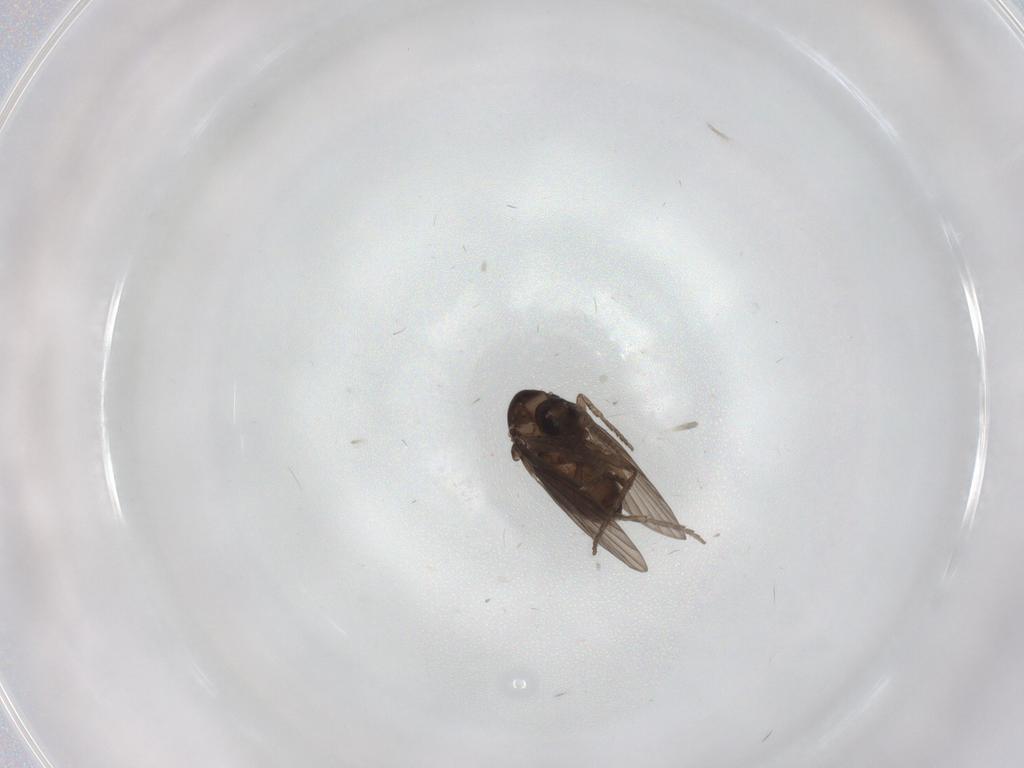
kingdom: Animalia
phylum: Arthropoda
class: Insecta
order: Diptera
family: Psychodidae
